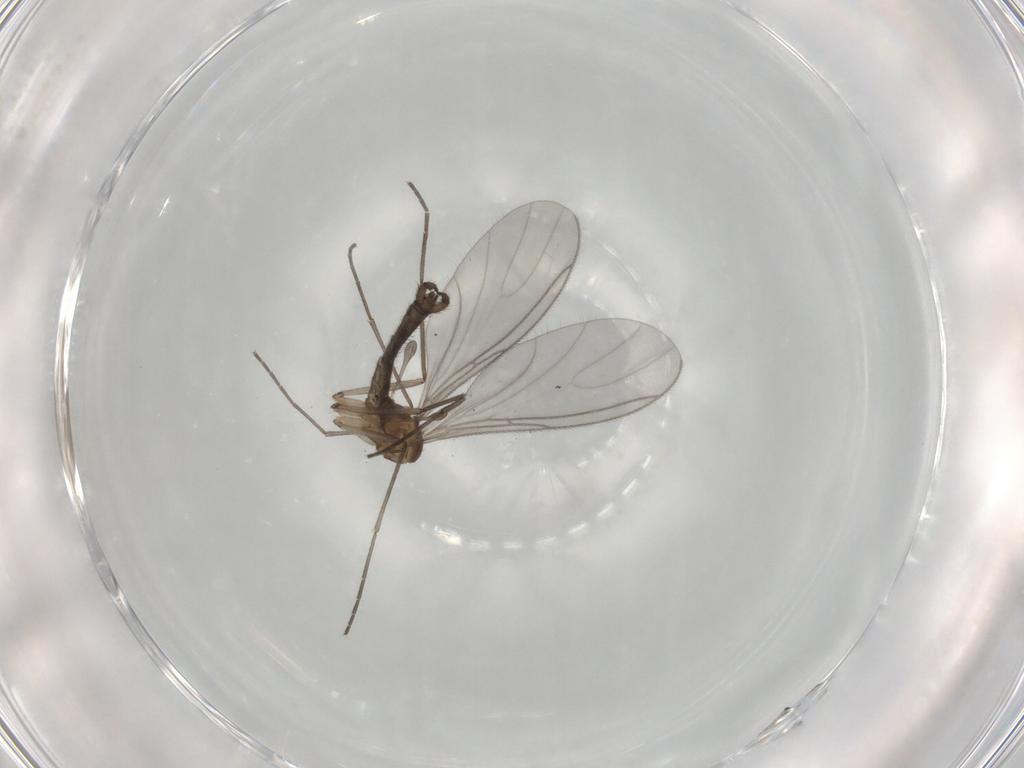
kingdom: Animalia
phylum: Arthropoda
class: Insecta
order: Diptera
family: Sciaridae
